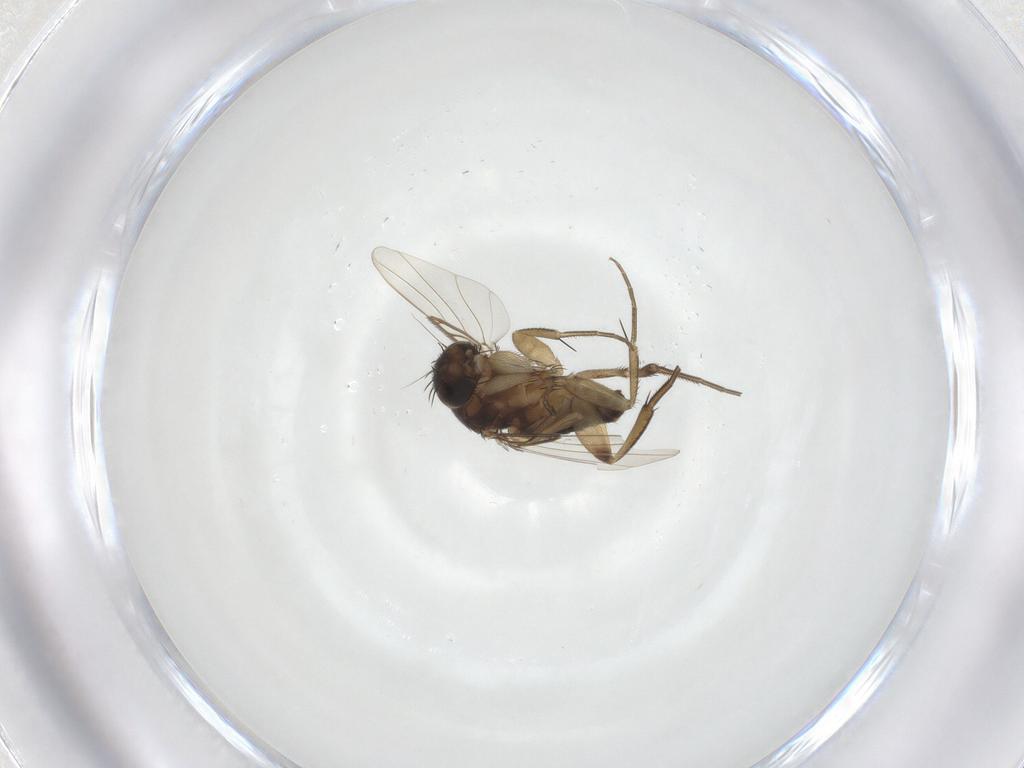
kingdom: Animalia
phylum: Arthropoda
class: Insecta
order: Diptera
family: Phoridae
